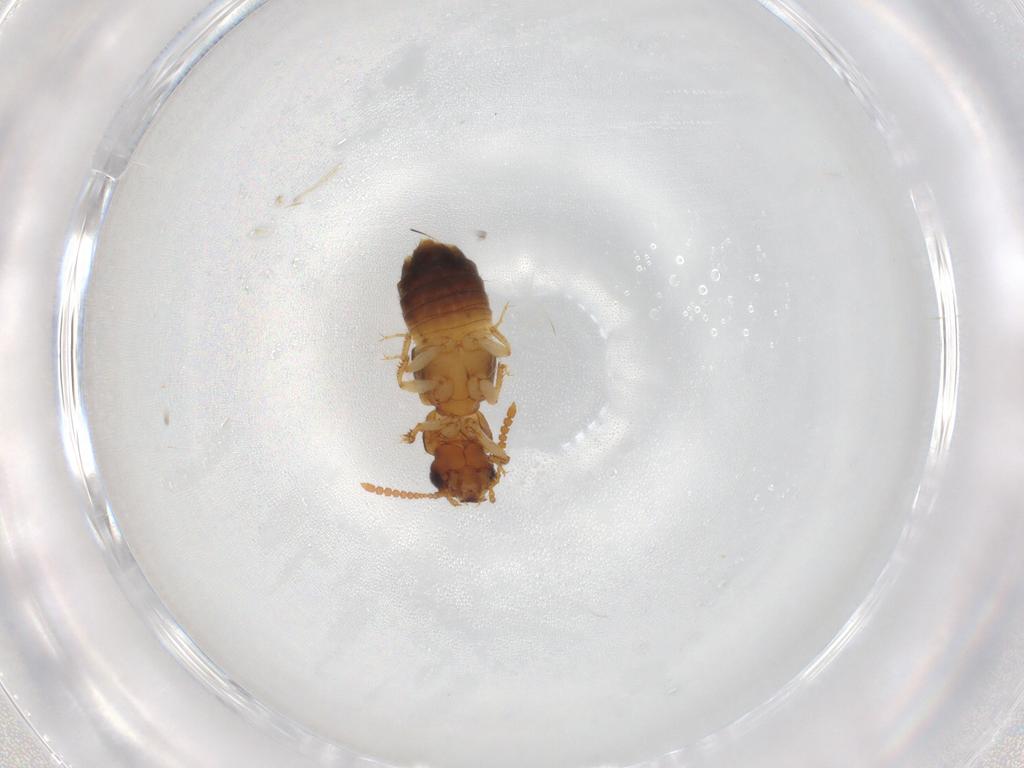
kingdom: Animalia
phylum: Arthropoda
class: Insecta
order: Coleoptera
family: Staphylinidae
